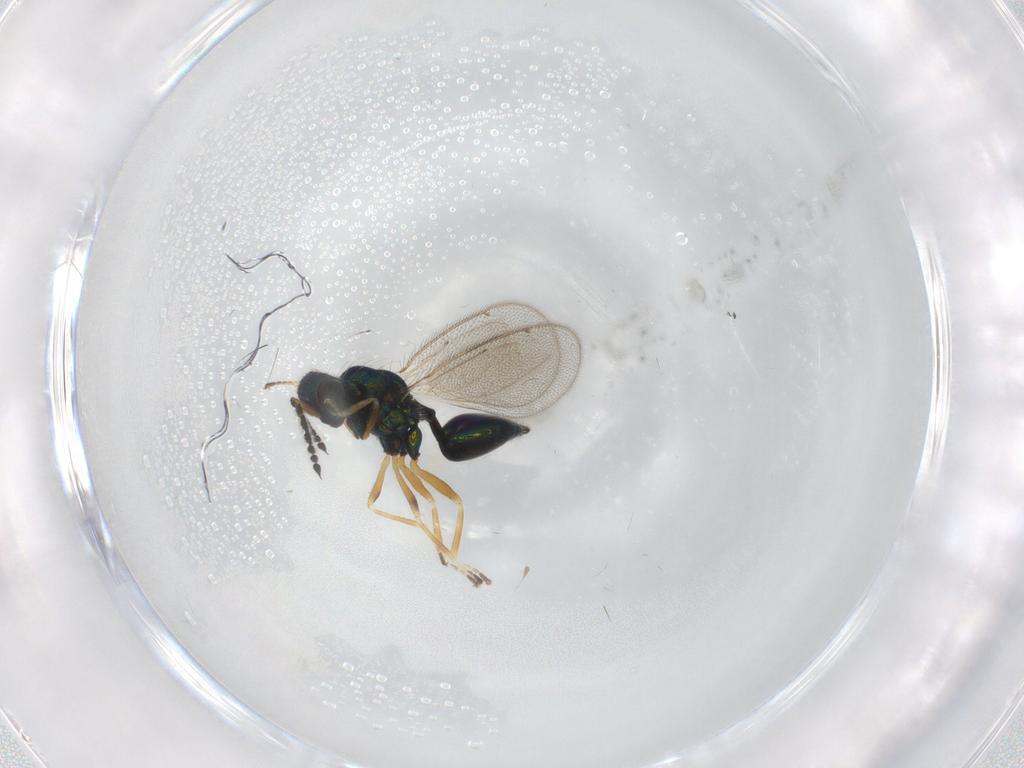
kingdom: Animalia
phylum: Arthropoda
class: Insecta
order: Hymenoptera
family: Eulophidae
